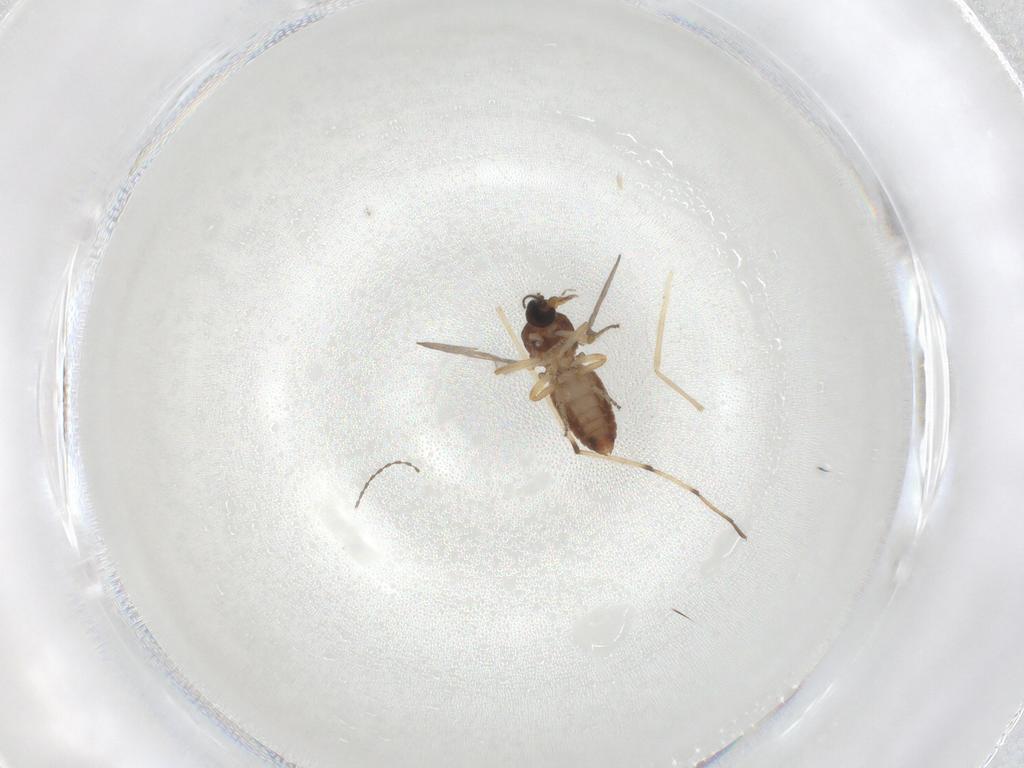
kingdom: Animalia
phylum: Arthropoda
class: Insecta
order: Diptera
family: Ceratopogonidae
